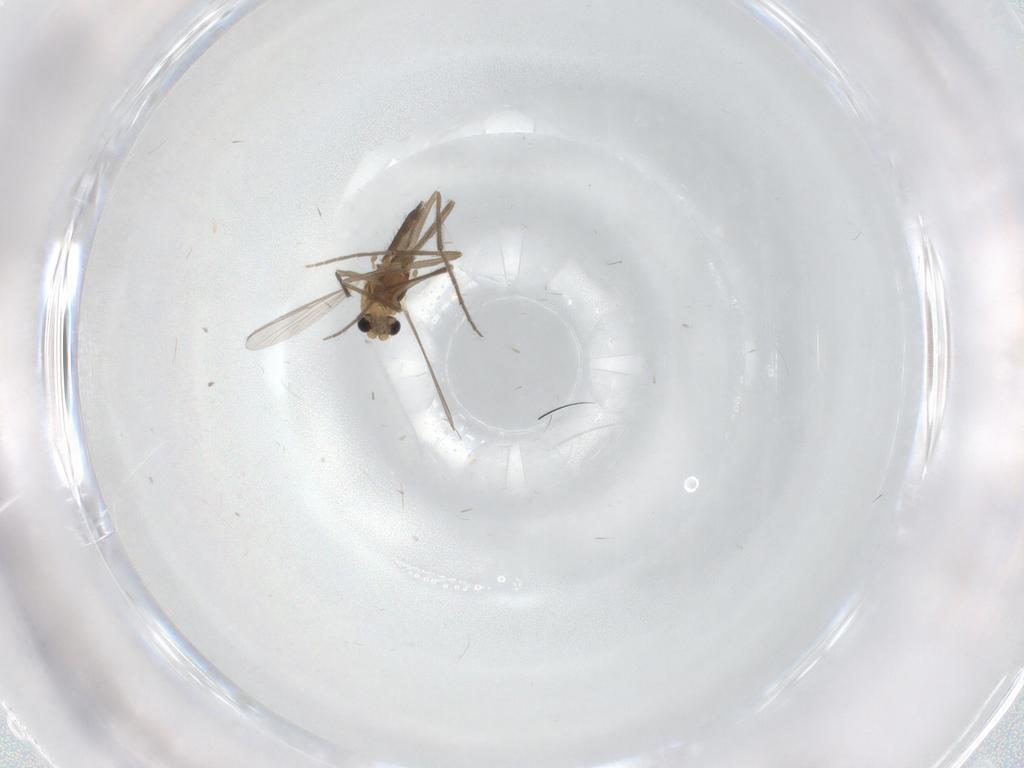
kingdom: Animalia
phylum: Arthropoda
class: Insecta
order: Diptera
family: Chironomidae
